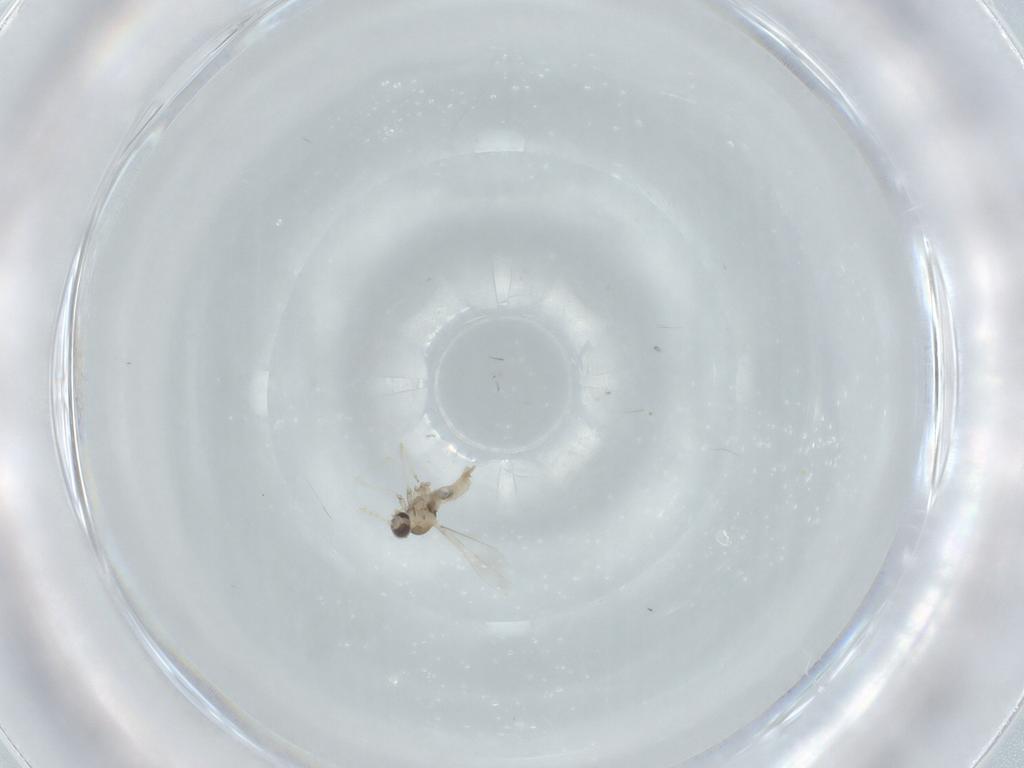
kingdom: Animalia
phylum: Arthropoda
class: Insecta
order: Diptera
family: Cecidomyiidae
